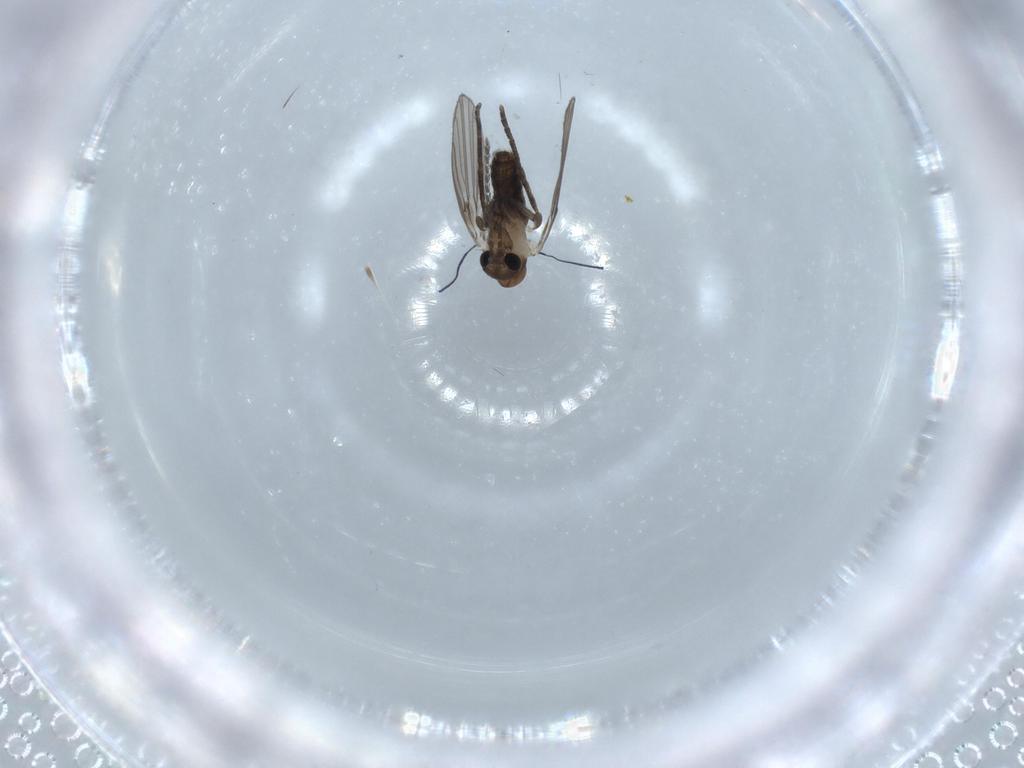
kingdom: Animalia
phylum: Arthropoda
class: Insecta
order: Diptera
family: Psychodidae
